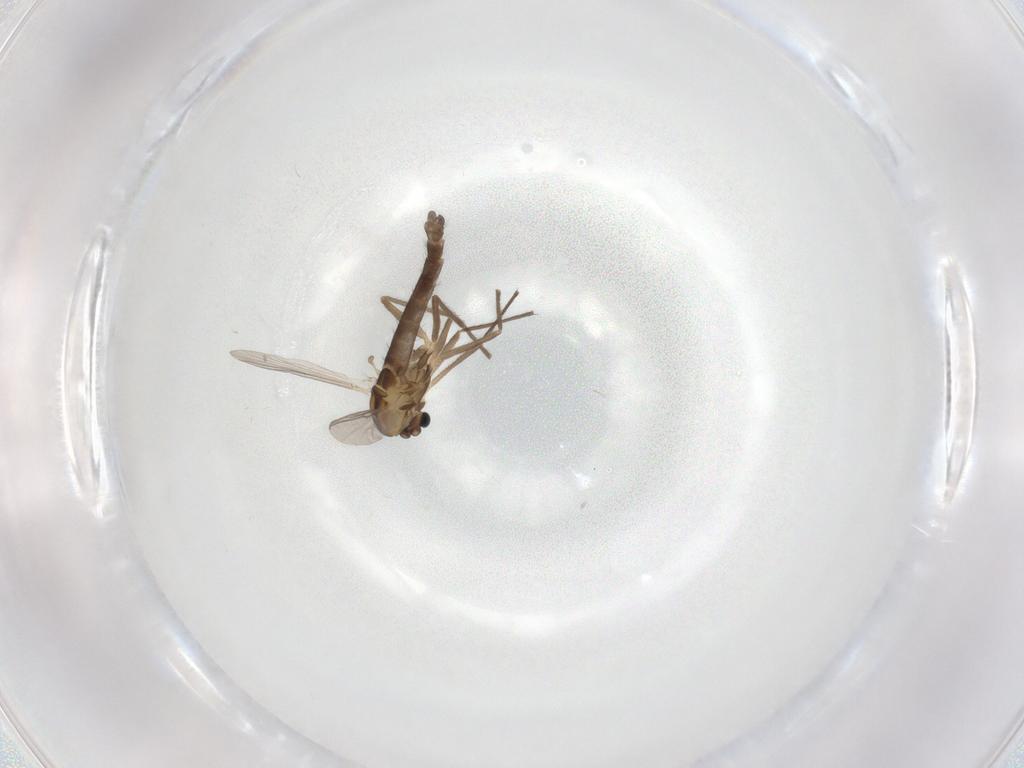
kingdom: Animalia
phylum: Arthropoda
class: Insecta
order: Diptera
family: Chironomidae
